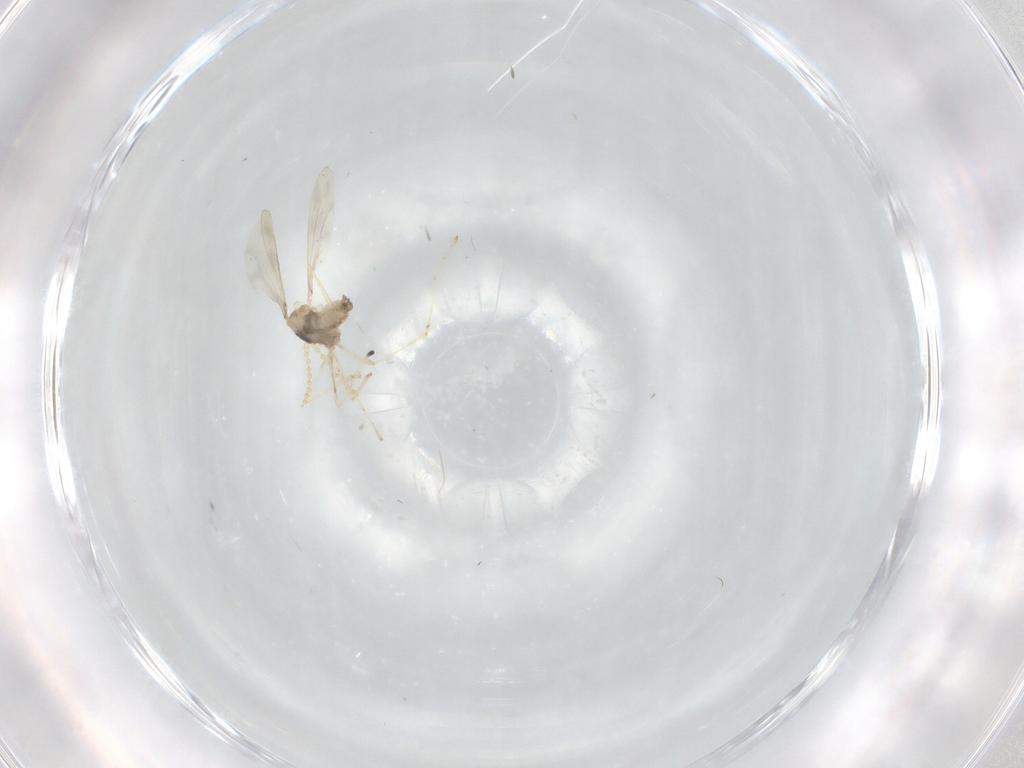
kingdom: Animalia
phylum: Arthropoda
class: Insecta
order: Diptera
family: Cecidomyiidae
